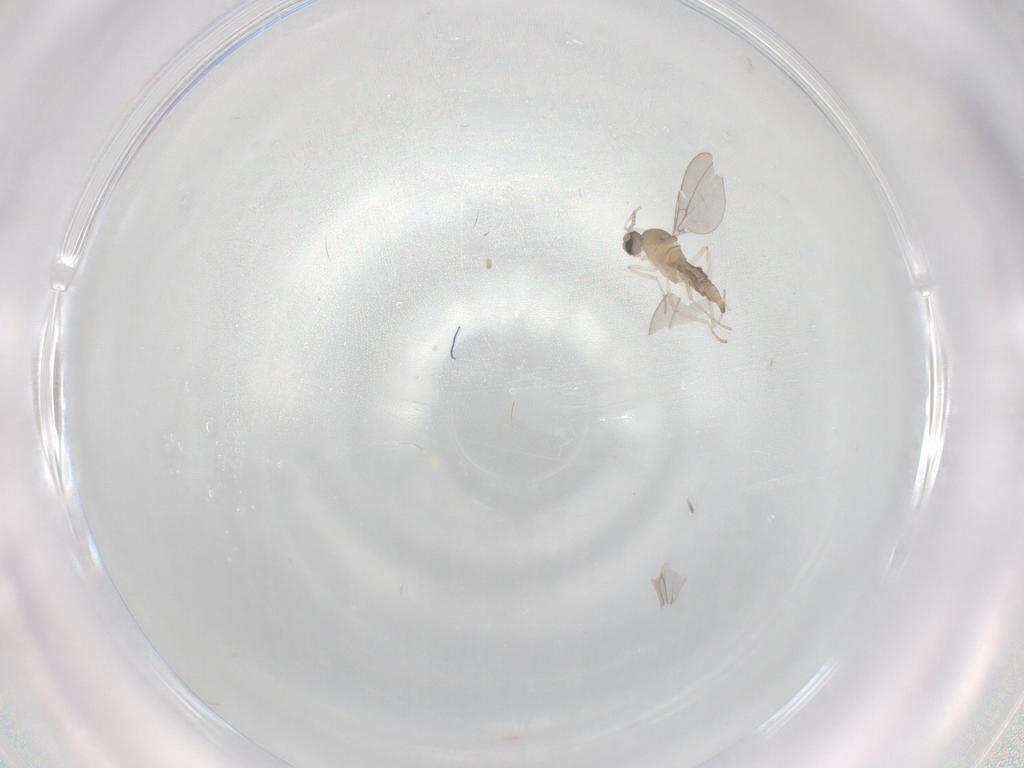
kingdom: Animalia
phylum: Arthropoda
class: Insecta
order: Diptera
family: Cecidomyiidae
